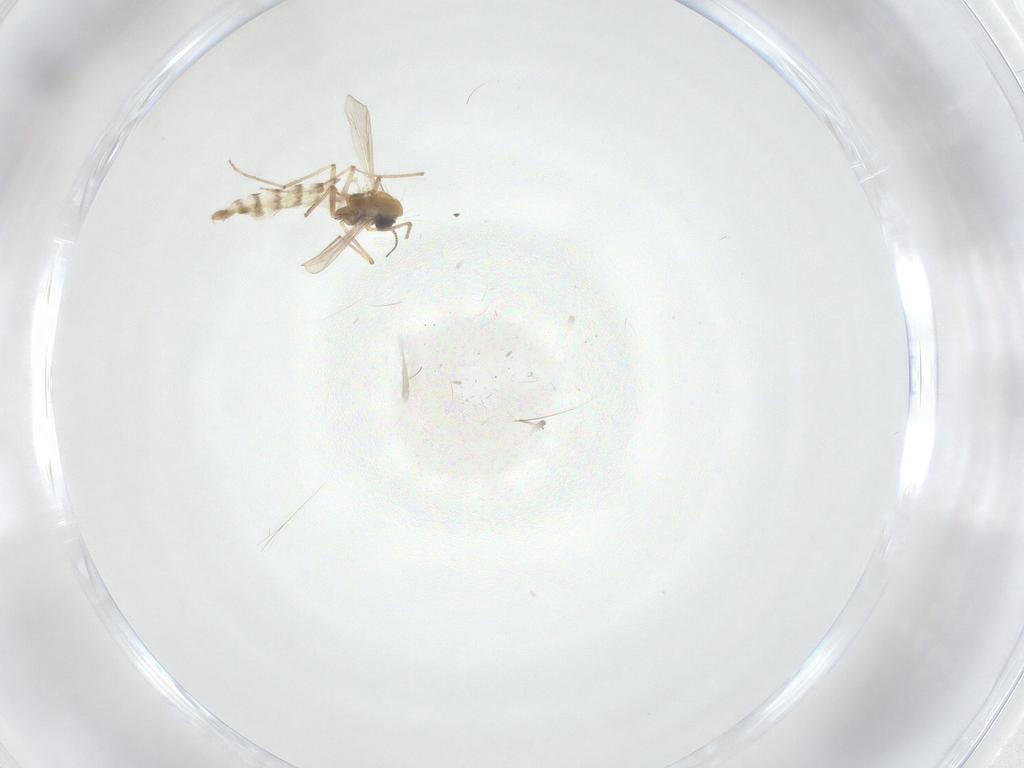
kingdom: Animalia
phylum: Arthropoda
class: Insecta
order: Diptera
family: Chironomidae
